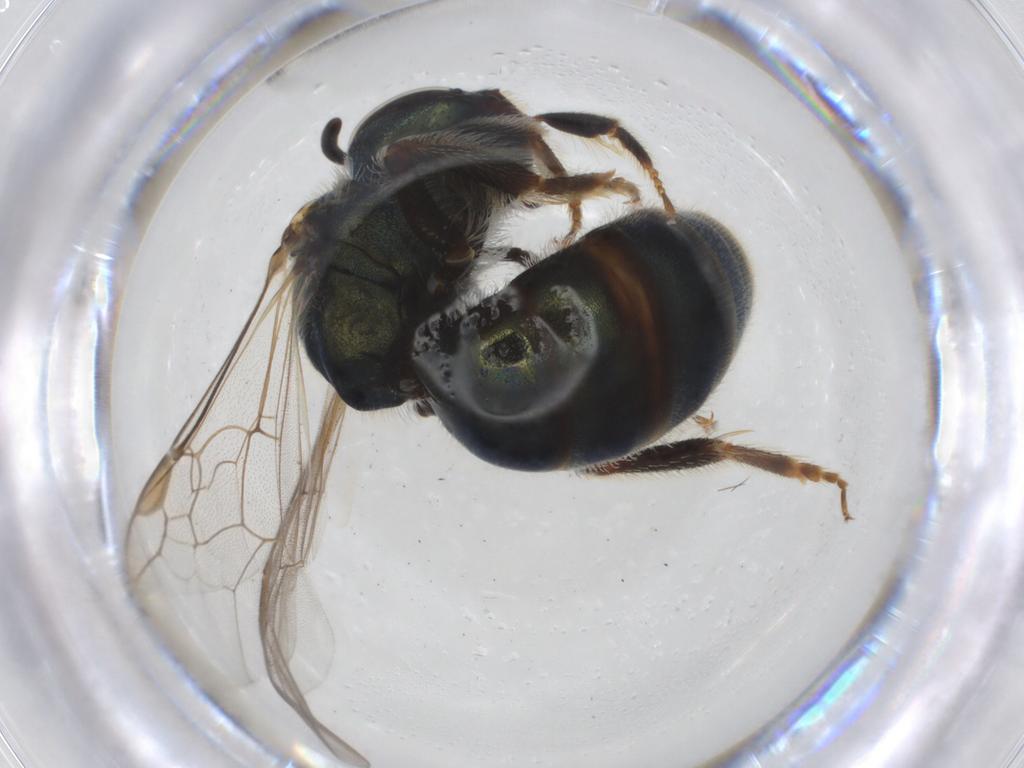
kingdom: Animalia
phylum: Arthropoda
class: Insecta
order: Hymenoptera
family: Halictidae
